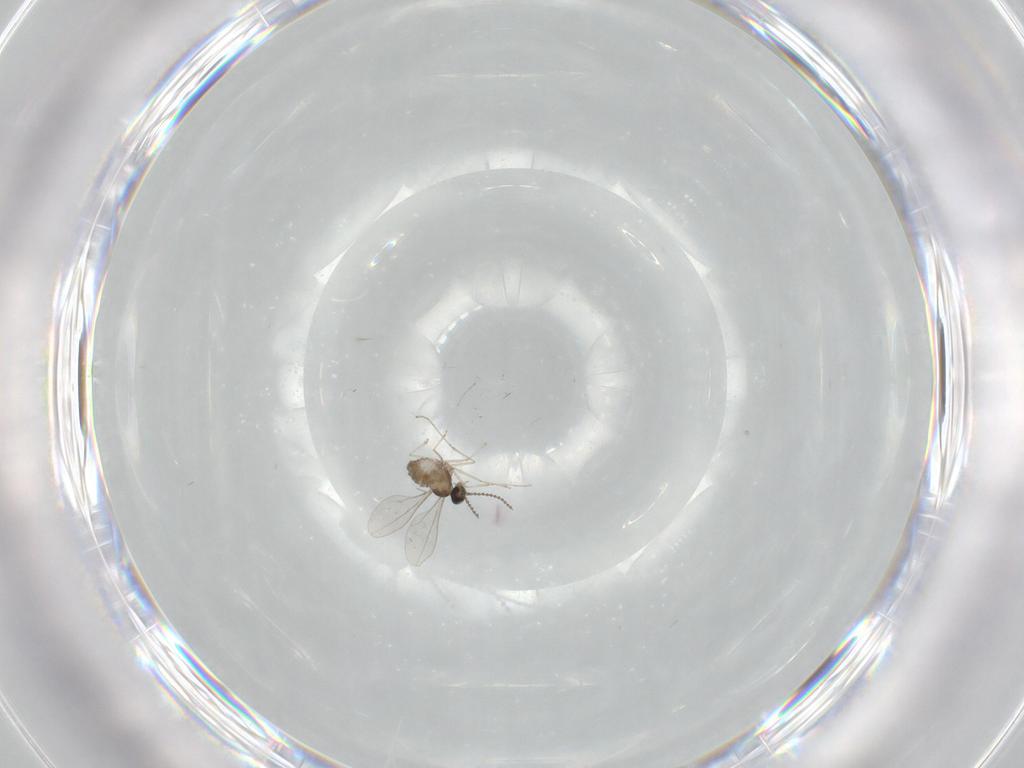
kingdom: Animalia
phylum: Arthropoda
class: Insecta
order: Diptera
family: Cecidomyiidae
